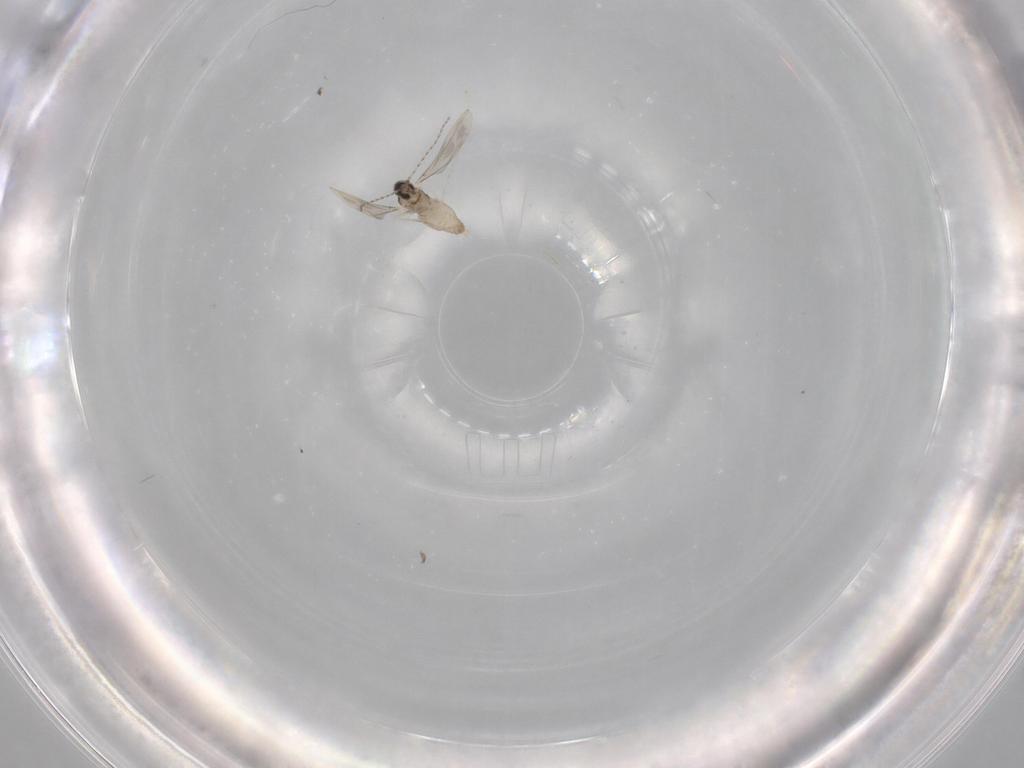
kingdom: Animalia
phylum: Arthropoda
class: Insecta
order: Diptera
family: Cecidomyiidae
